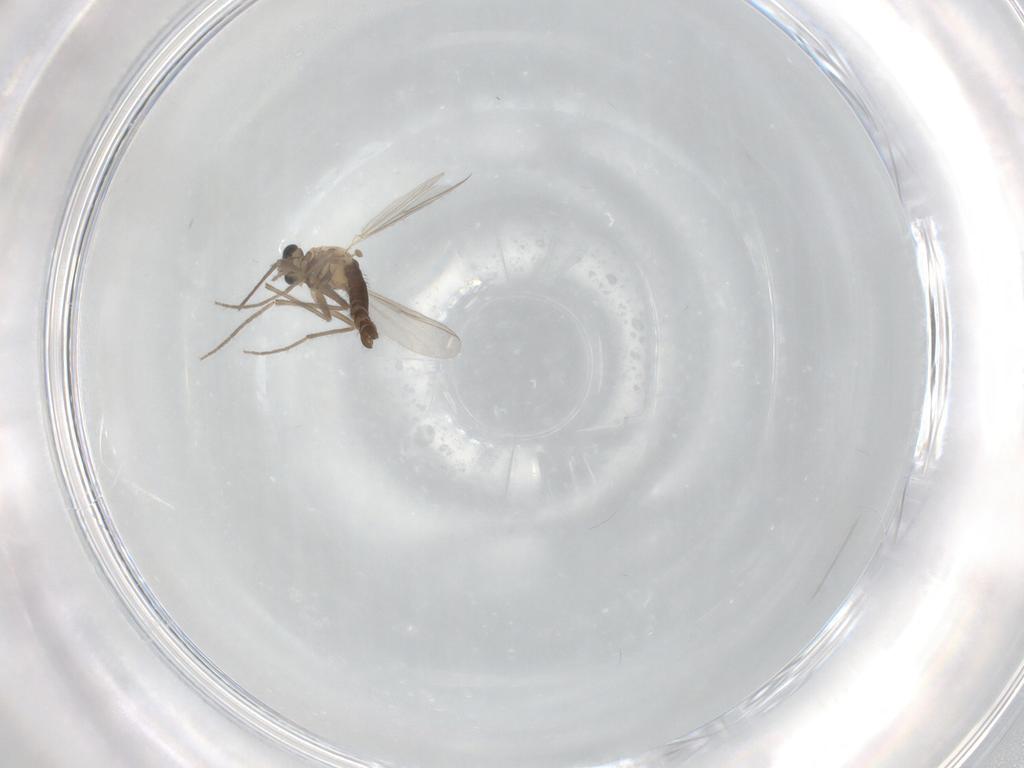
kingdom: Animalia
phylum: Arthropoda
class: Insecta
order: Diptera
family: Chironomidae
